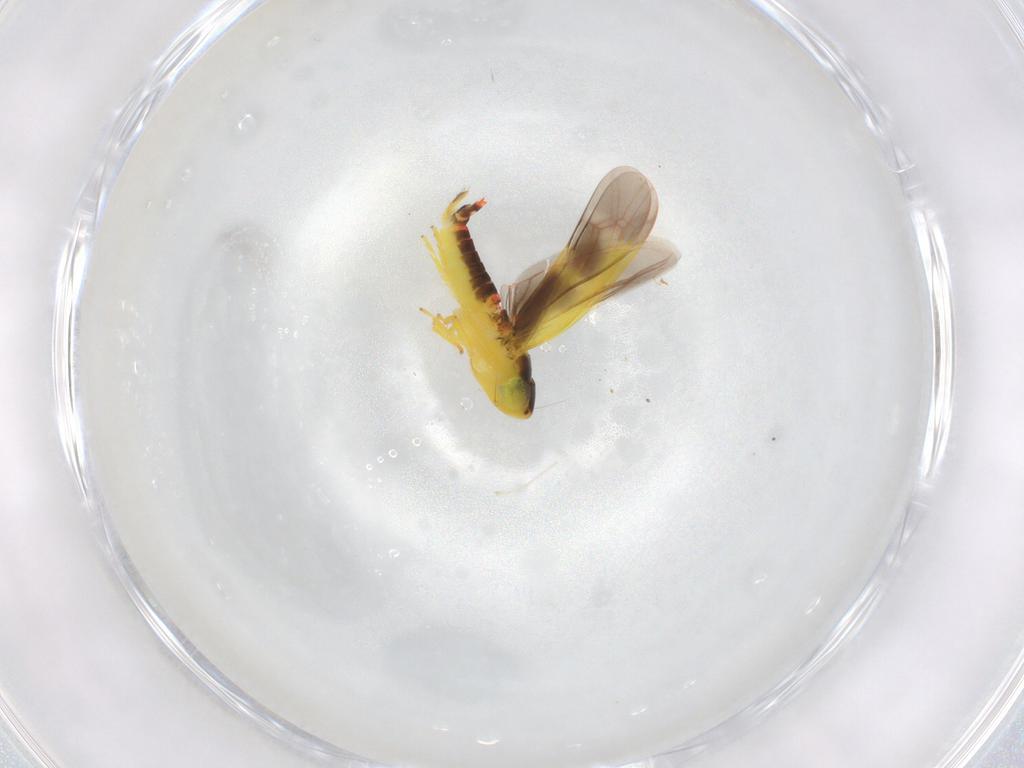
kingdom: Animalia
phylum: Arthropoda
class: Insecta
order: Hemiptera
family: Cicadellidae
